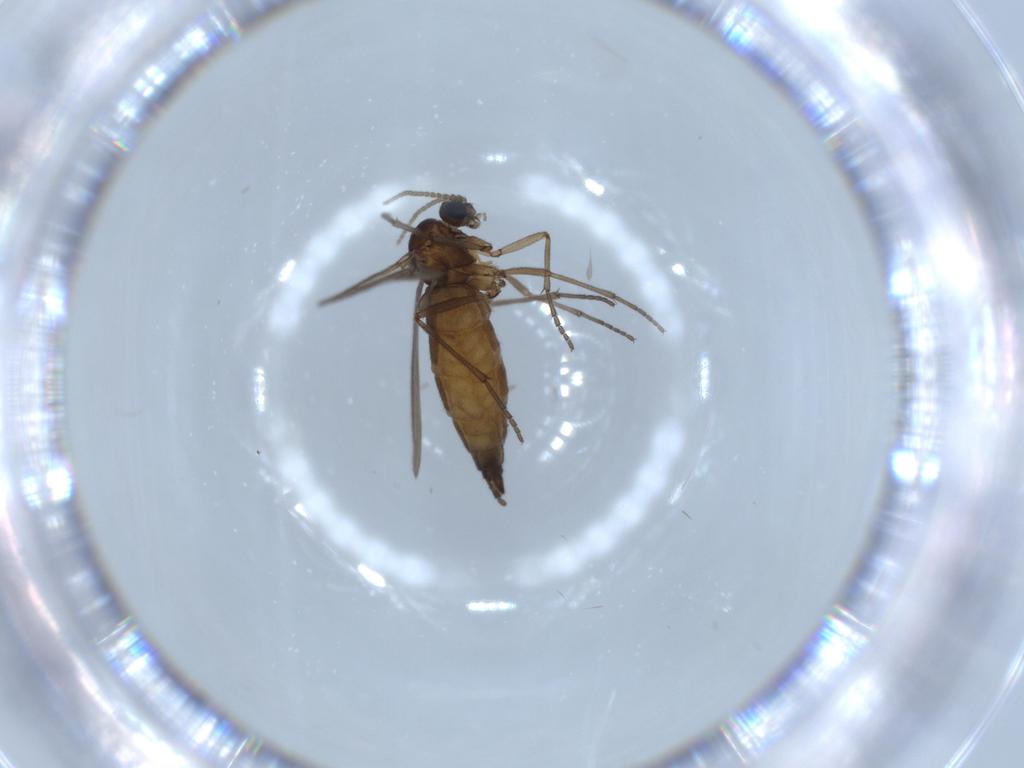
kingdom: Animalia
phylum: Arthropoda
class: Insecta
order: Diptera
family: Sciaridae
